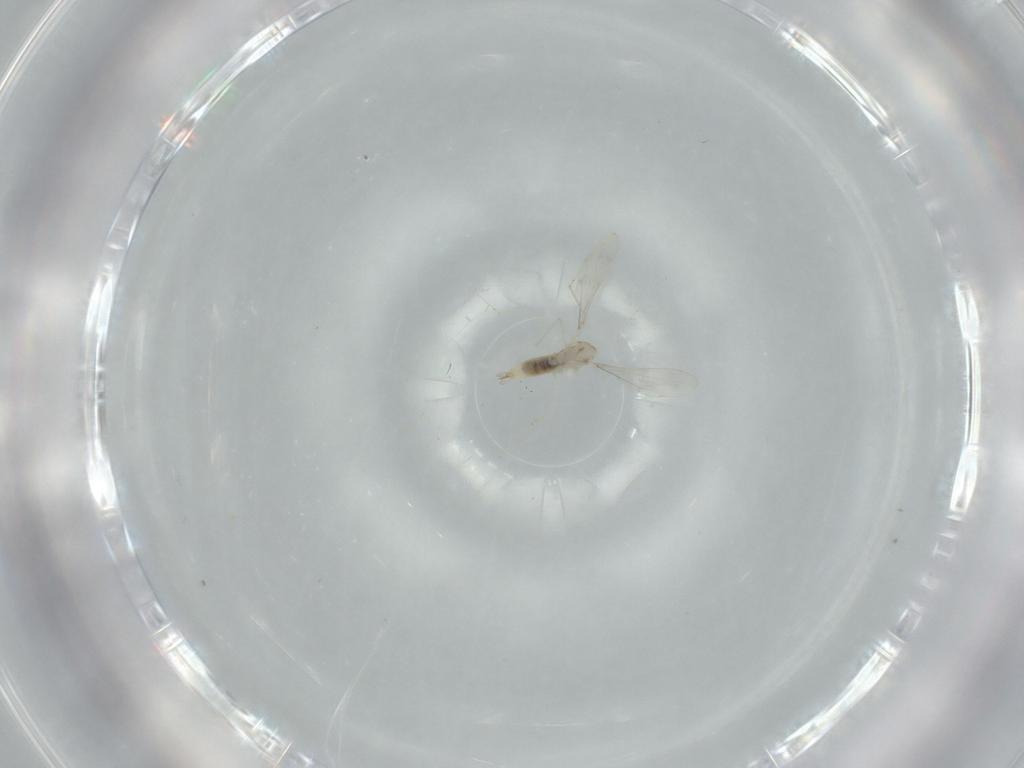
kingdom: Animalia
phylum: Arthropoda
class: Insecta
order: Diptera
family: Cecidomyiidae
